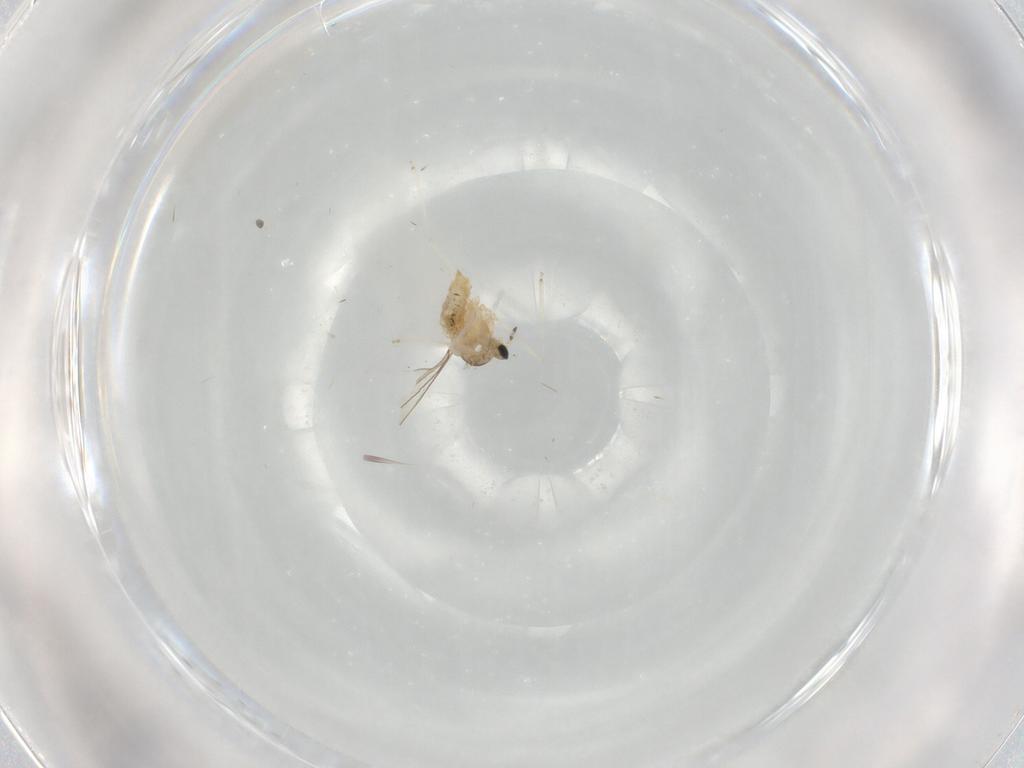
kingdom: Animalia
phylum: Arthropoda
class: Insecta
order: Diptera
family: Cecidomyiidae
